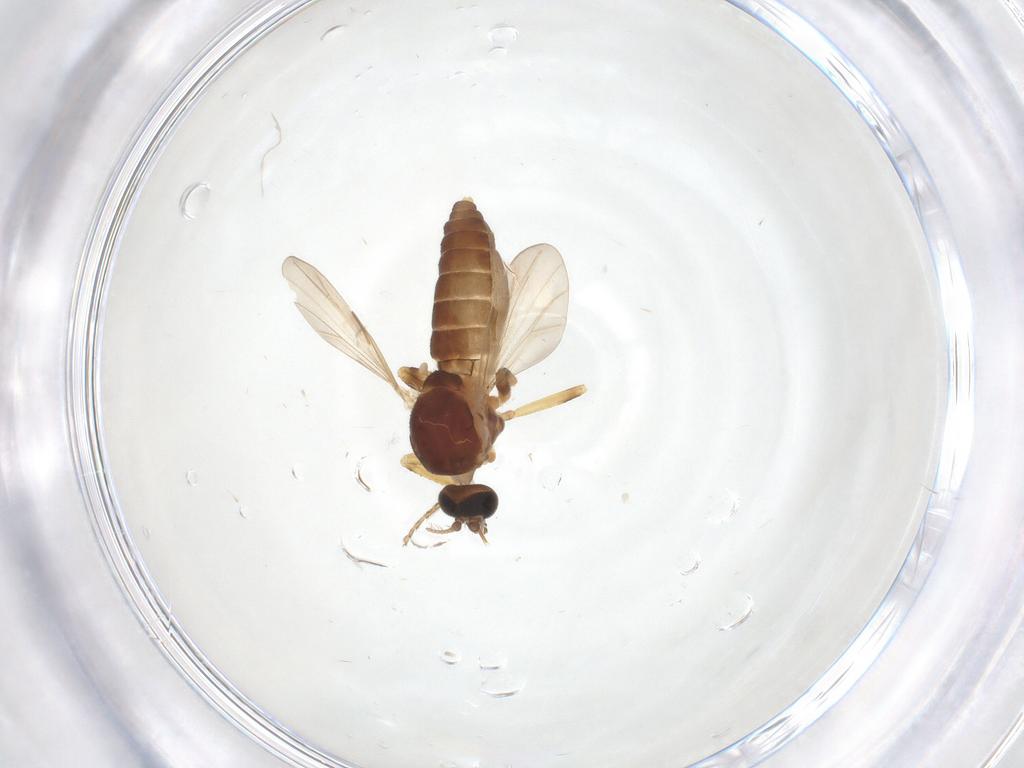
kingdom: Animalia
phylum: Arthropoda
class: Insecta
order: Diptera
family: Ceratopogonidae
